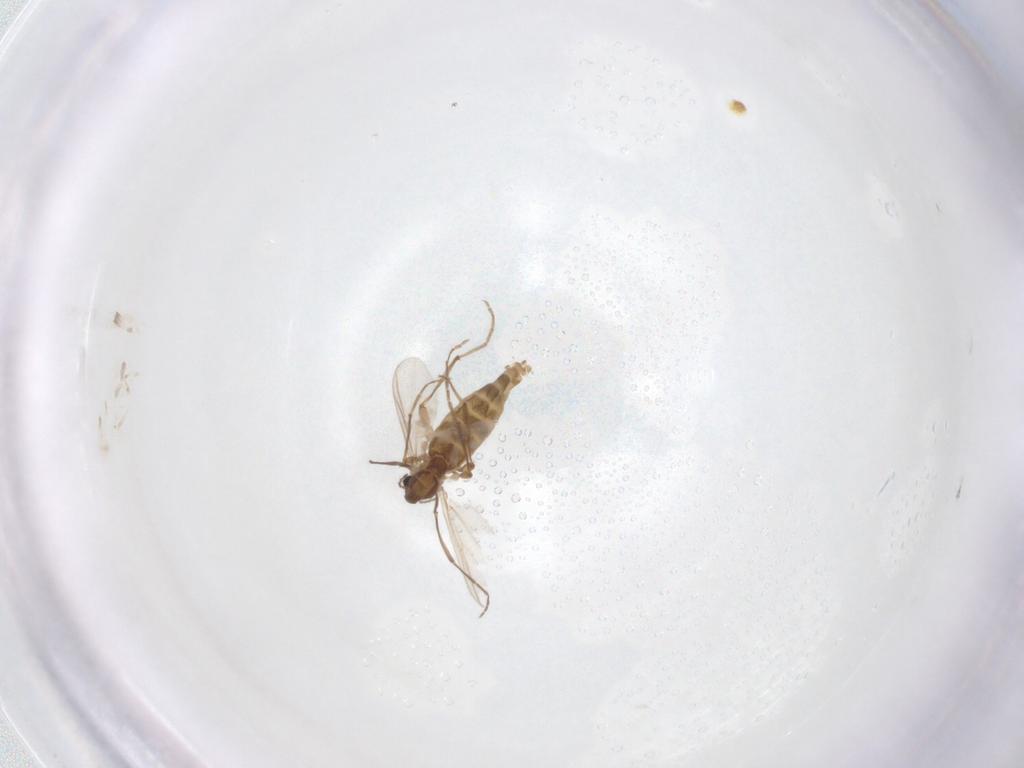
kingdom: Animalia
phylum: Arthropoda
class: Insecta
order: Diptera
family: Chironomidae
